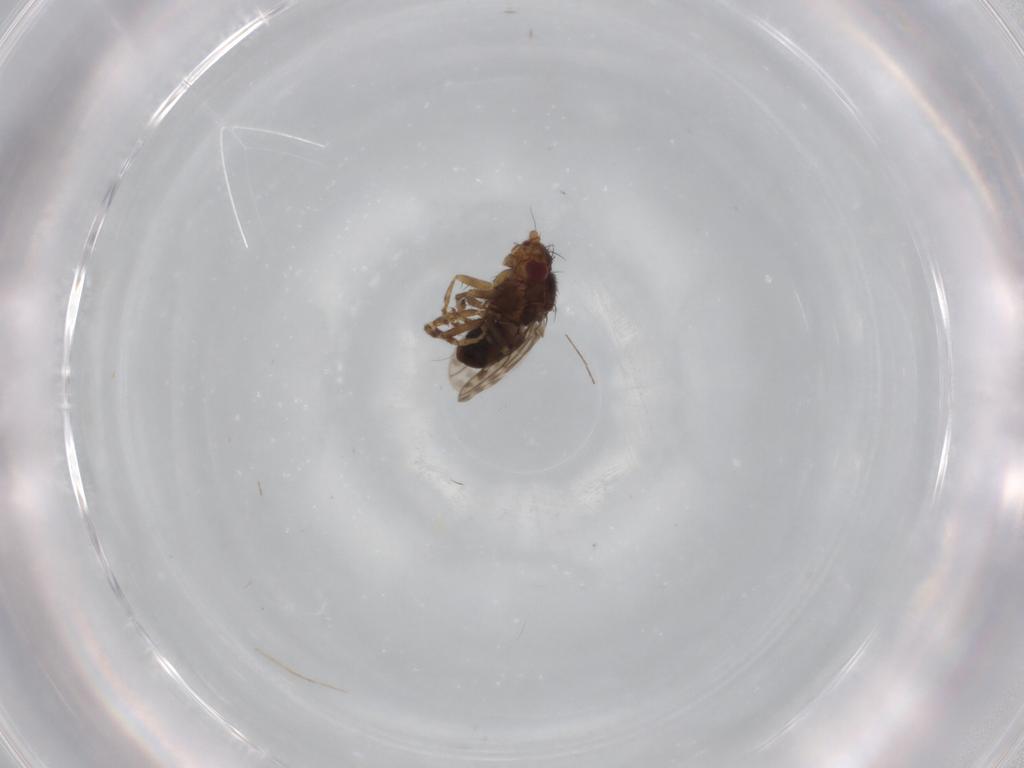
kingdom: Animalia
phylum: Arthropoda
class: Insecta
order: Diptera
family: Sphaeroceridae
